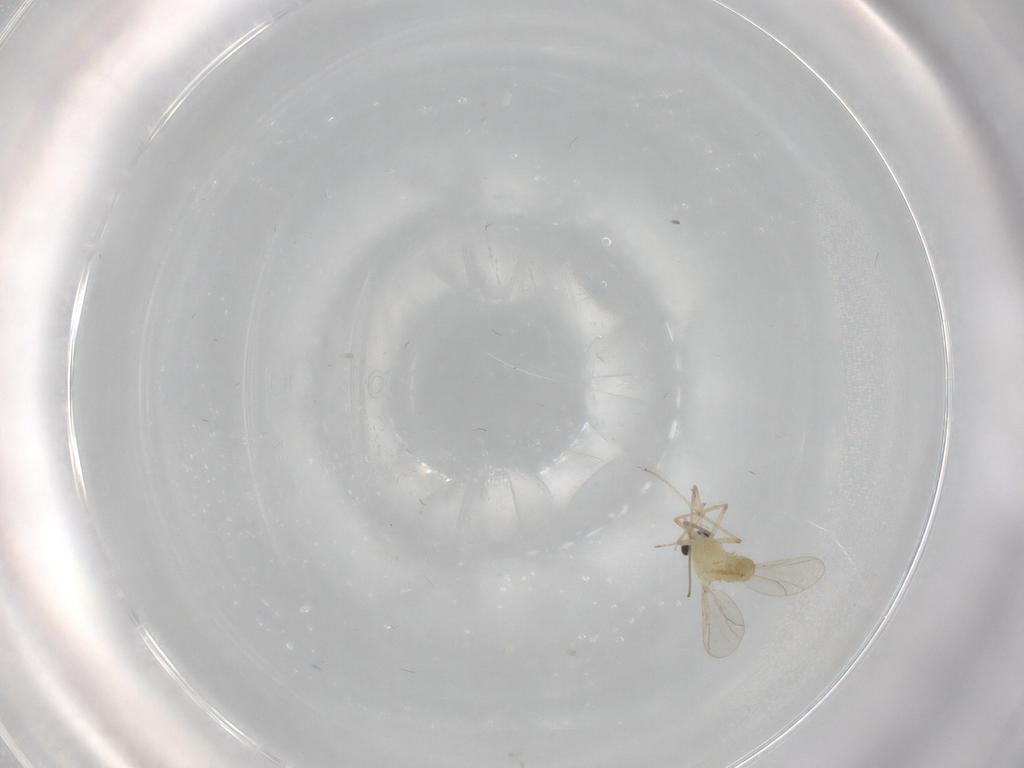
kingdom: Animalia
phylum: Arthropoda
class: Insecta
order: Diptera
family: Chironomidae
